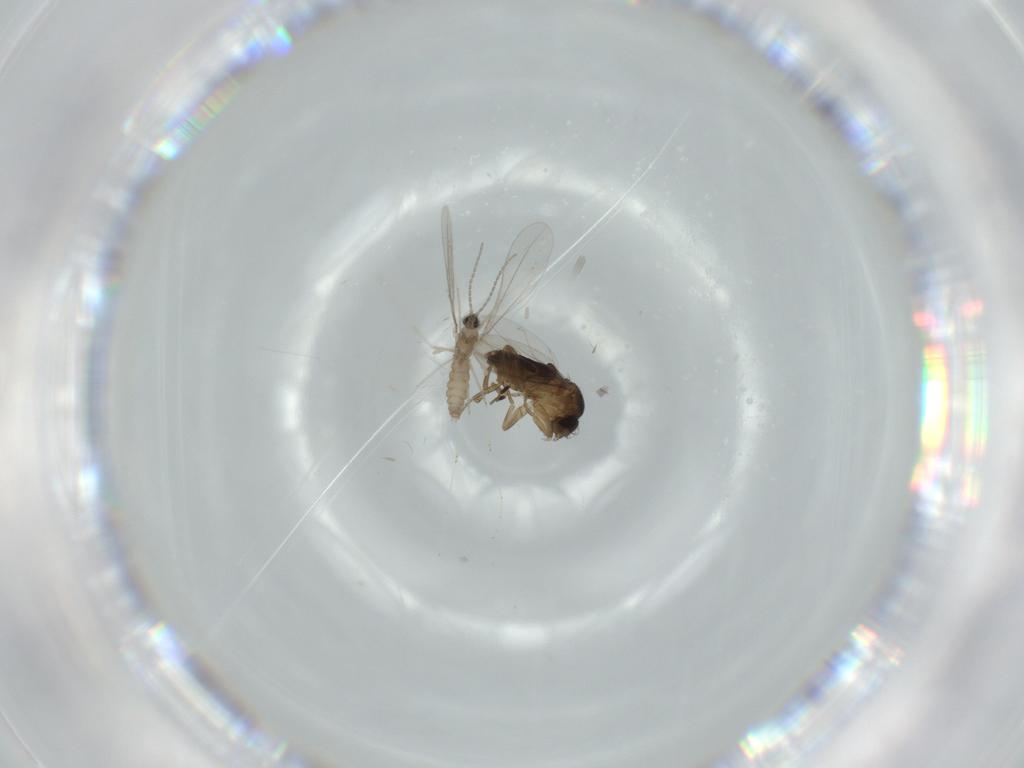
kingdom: Animalia
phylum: Arthropoda
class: Insecta
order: Diptera
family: Cecidomyiidae
